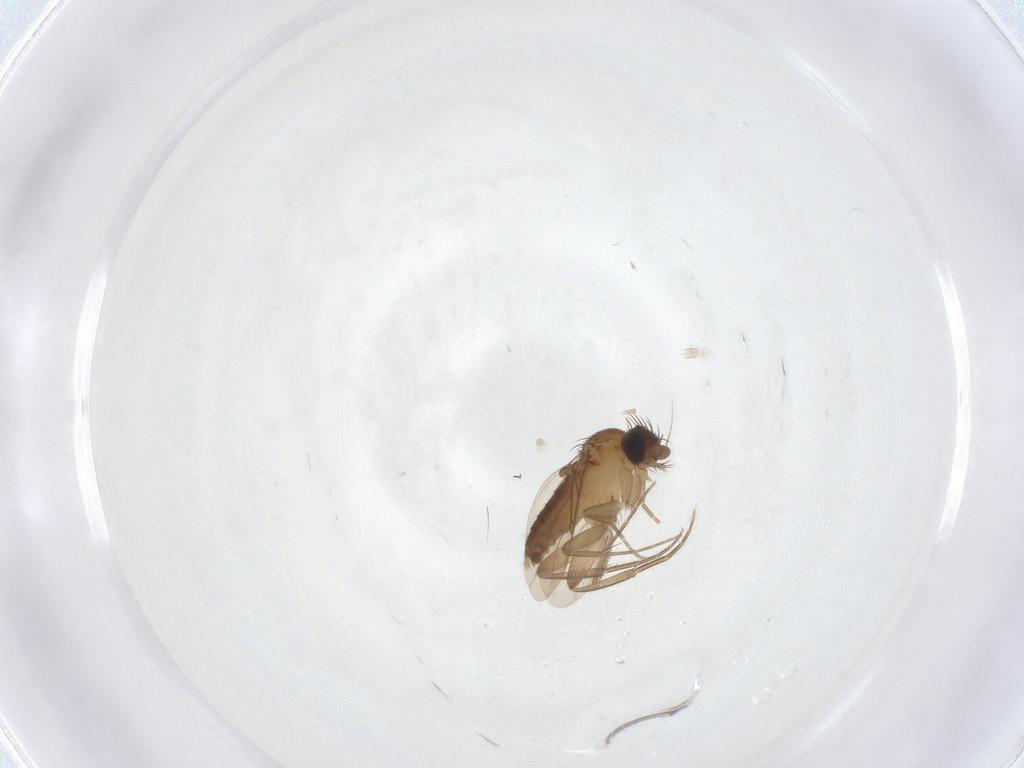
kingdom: Animalia
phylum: Arthropoda
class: Insecta
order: Diptera
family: Phoridae
